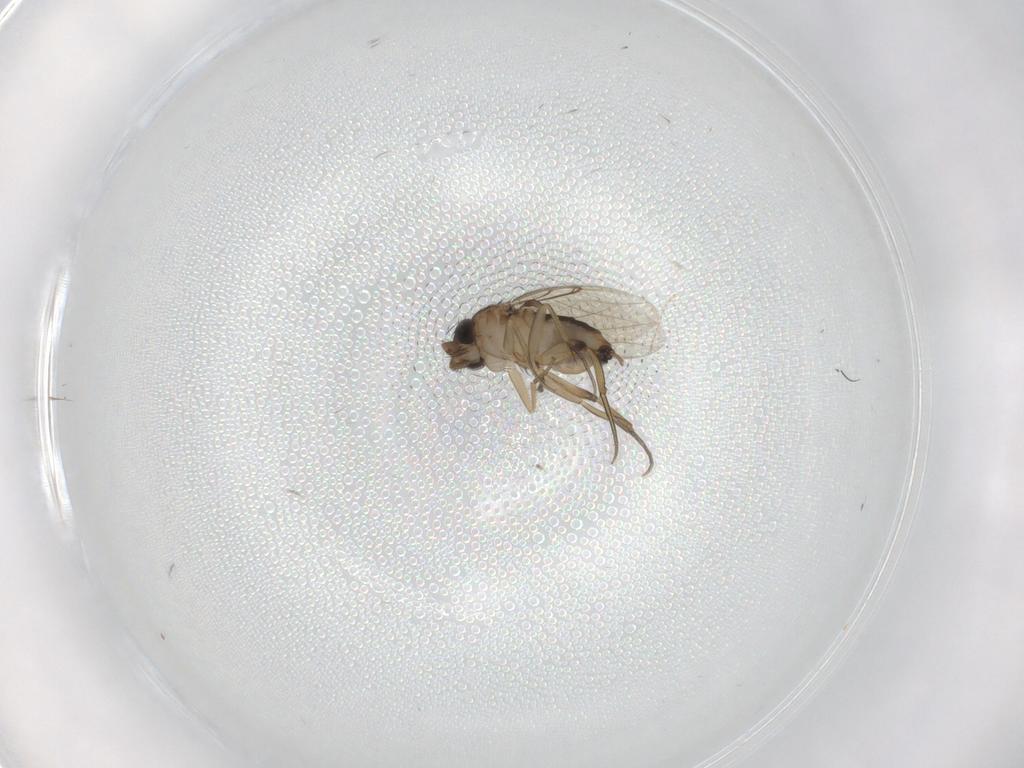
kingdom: Animalia
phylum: Arthropoda
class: Insecta
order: Diptera
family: Phoridae
